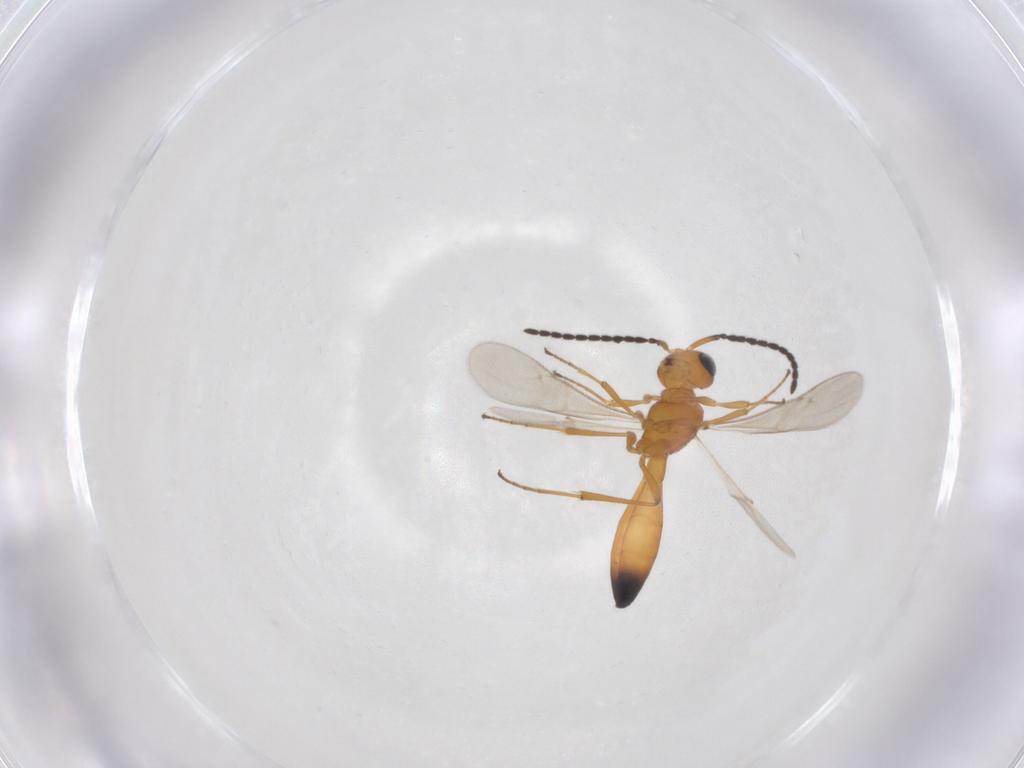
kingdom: Animalia
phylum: Arthropoda
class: Insecta
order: Hymenoptera
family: Scelionidae
